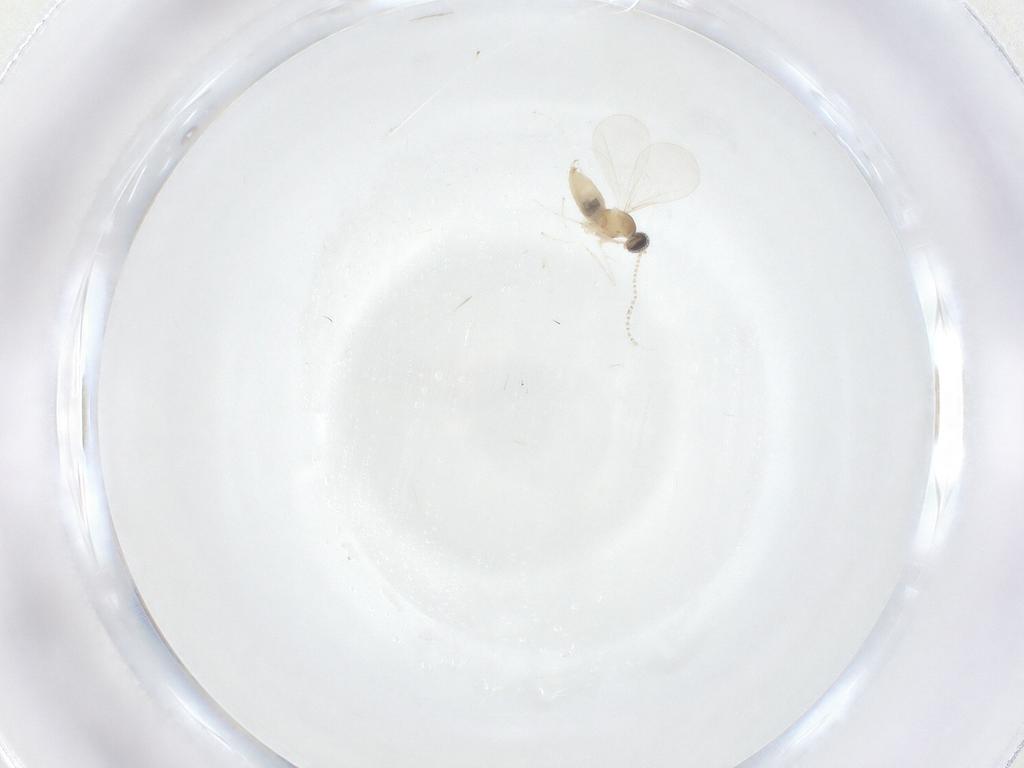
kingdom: Animalia
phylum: Arthropoda
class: Insecta
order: Diptera
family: Cecidomyiidae
